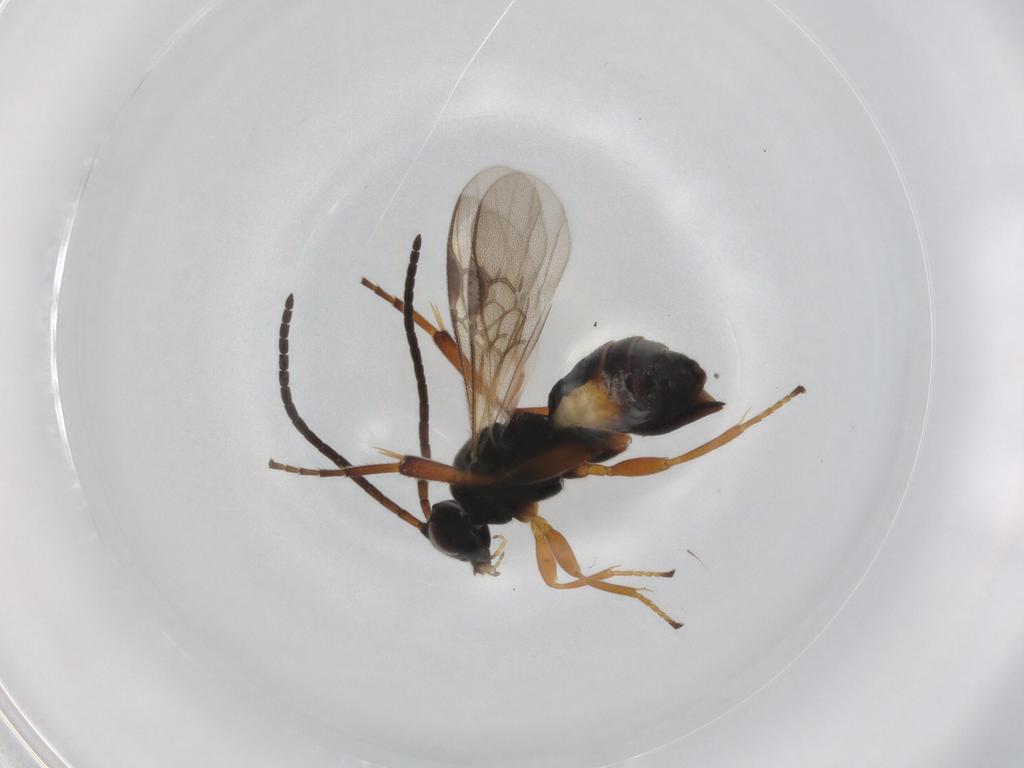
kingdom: Animalia
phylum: Arthropoda
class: Insecta
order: Hymenoptera
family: Braconidae
